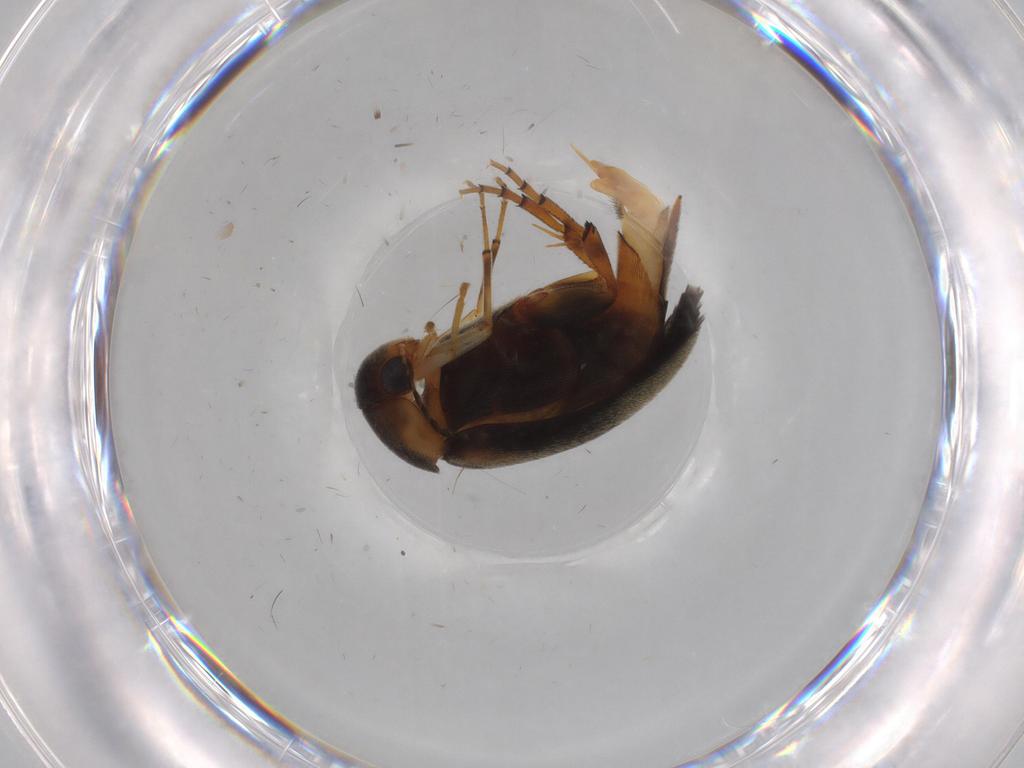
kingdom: Animalia
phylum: Arthropoda
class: Insecta
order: Coleoptera
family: Mordellidae
